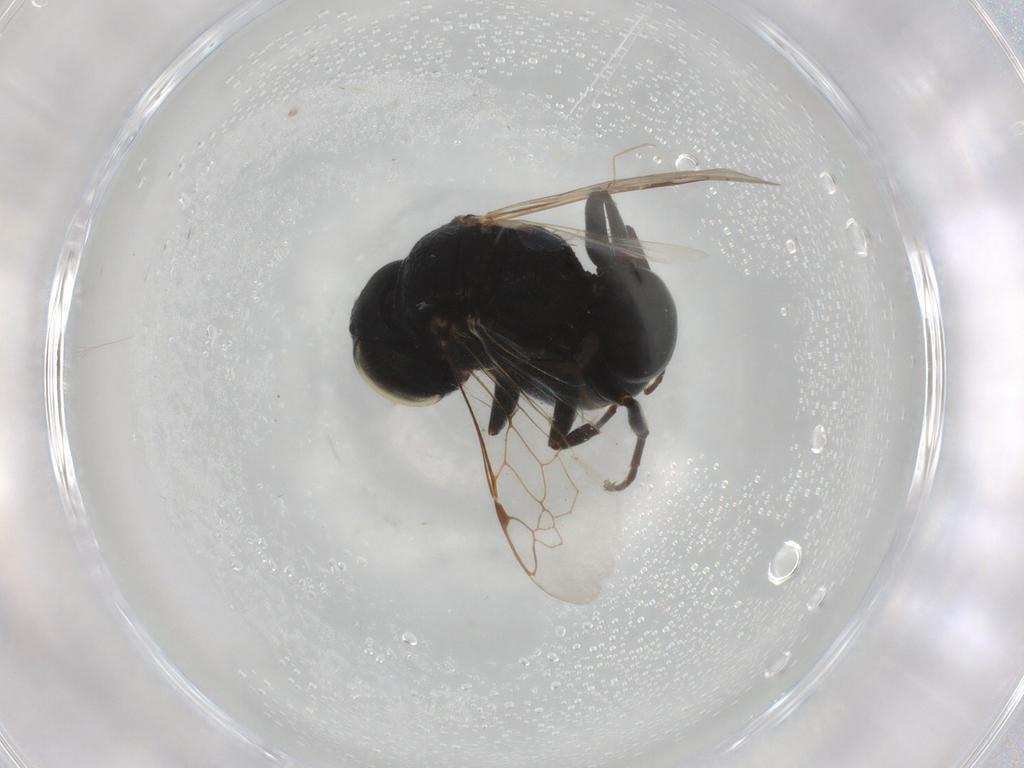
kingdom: Animalia
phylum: Arthropoda
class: Insecta
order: Hymenoptera
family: Crabronidae
